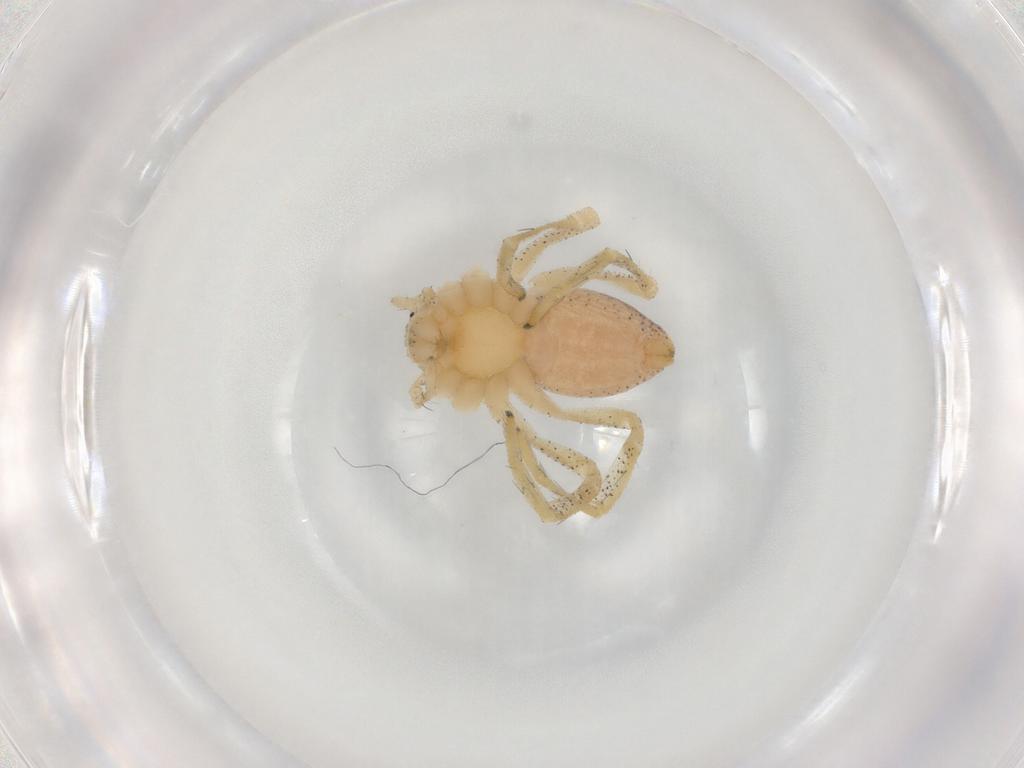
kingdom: Animalia
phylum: Arthropoda
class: Arachnida
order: Araneae
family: Philodromidae
